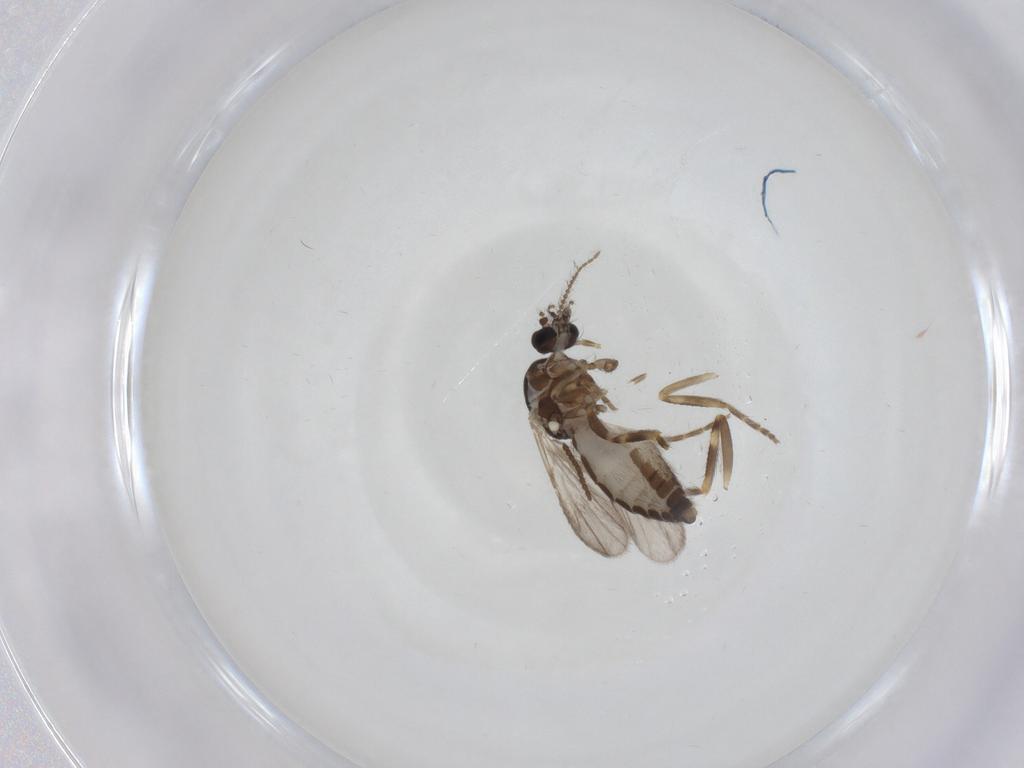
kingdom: Animalia
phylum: Arthropoda
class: Insecta
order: Diptera
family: Ceratopogonidae
